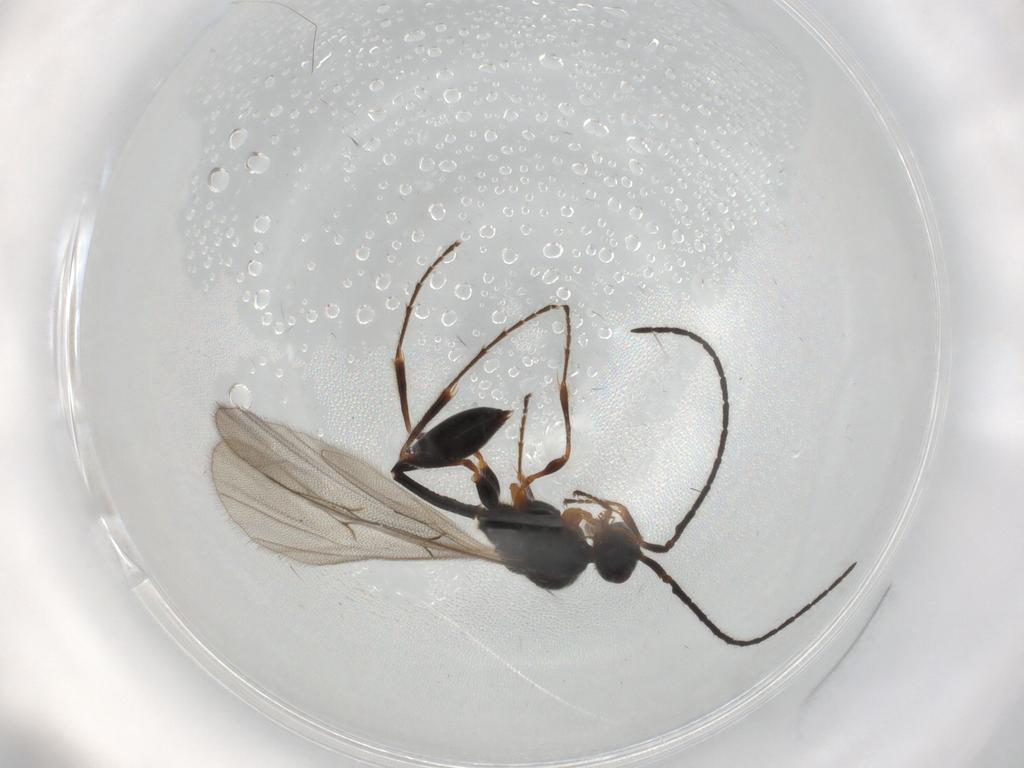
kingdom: Animalia
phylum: Arthropoda
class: Insecta
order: Hymenoptera
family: Diapriidae
